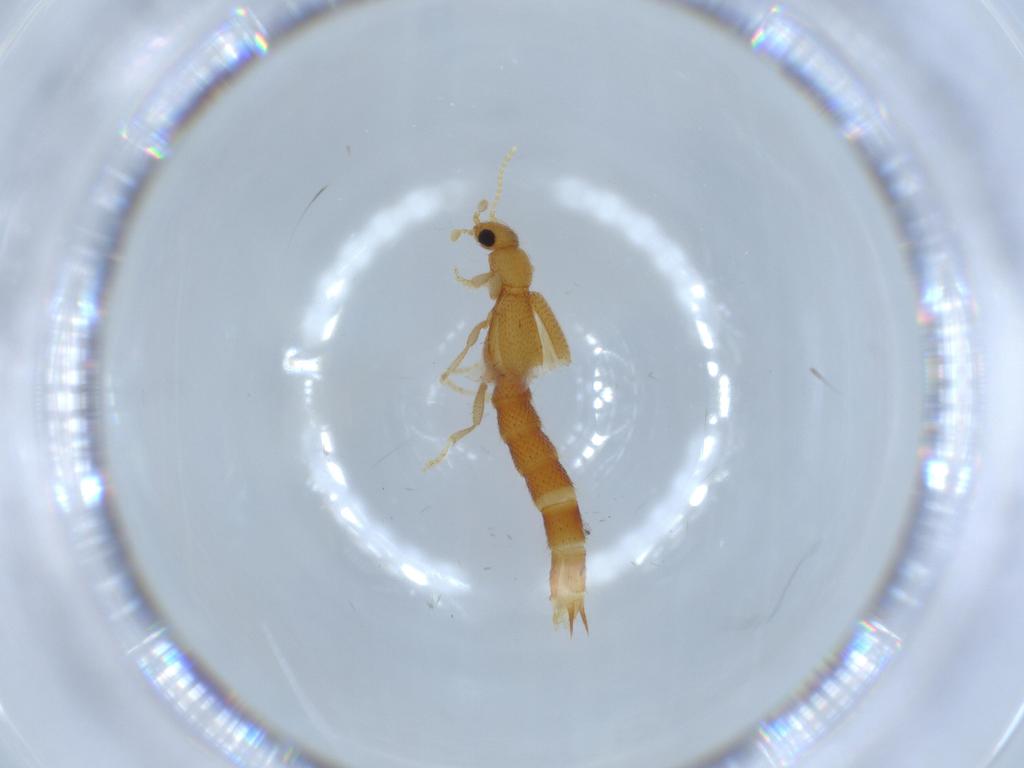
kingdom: Animalia
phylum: Arthropoda
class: Insecta
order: Coleoptera
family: Staphylinidae
